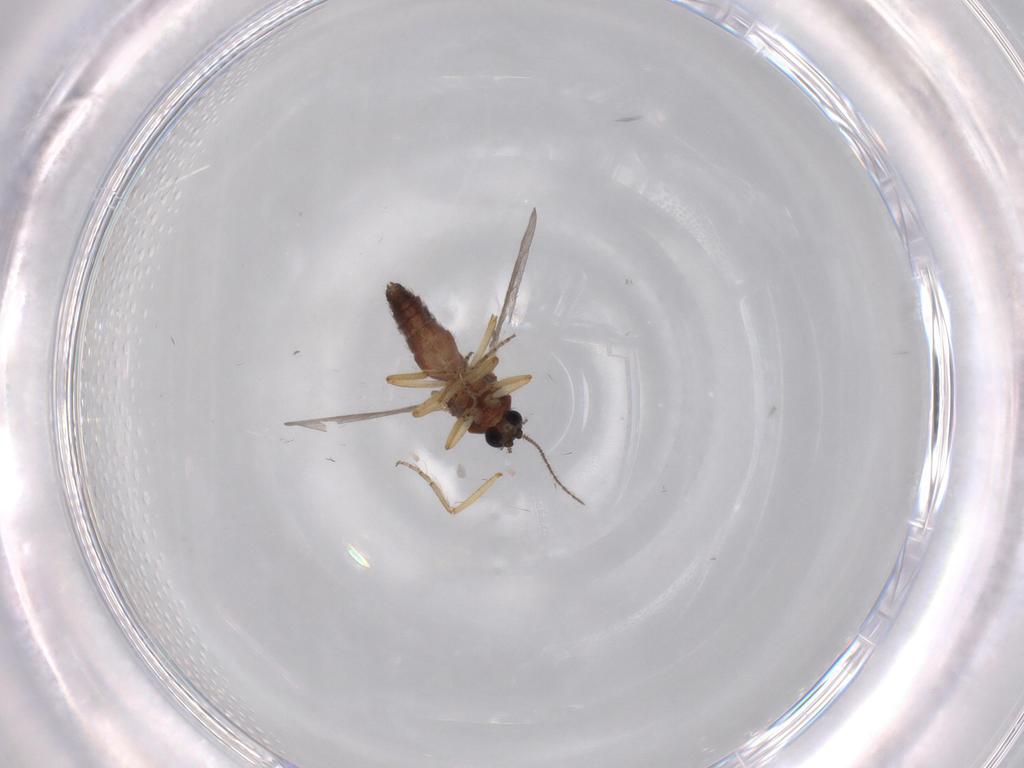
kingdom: Animalia
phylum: Arthropoda
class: Insecta
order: Diptera
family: Ceratopogonidae
